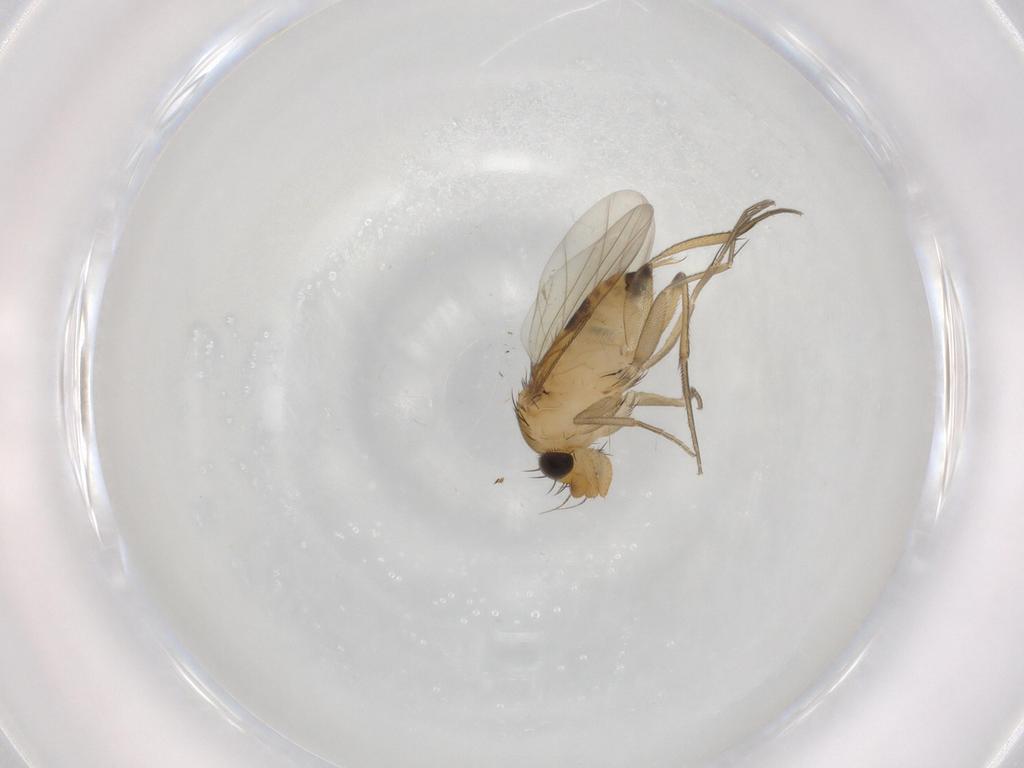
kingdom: Animalia
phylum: Arthropoda
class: Insecta
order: Diptera
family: Phoridae
